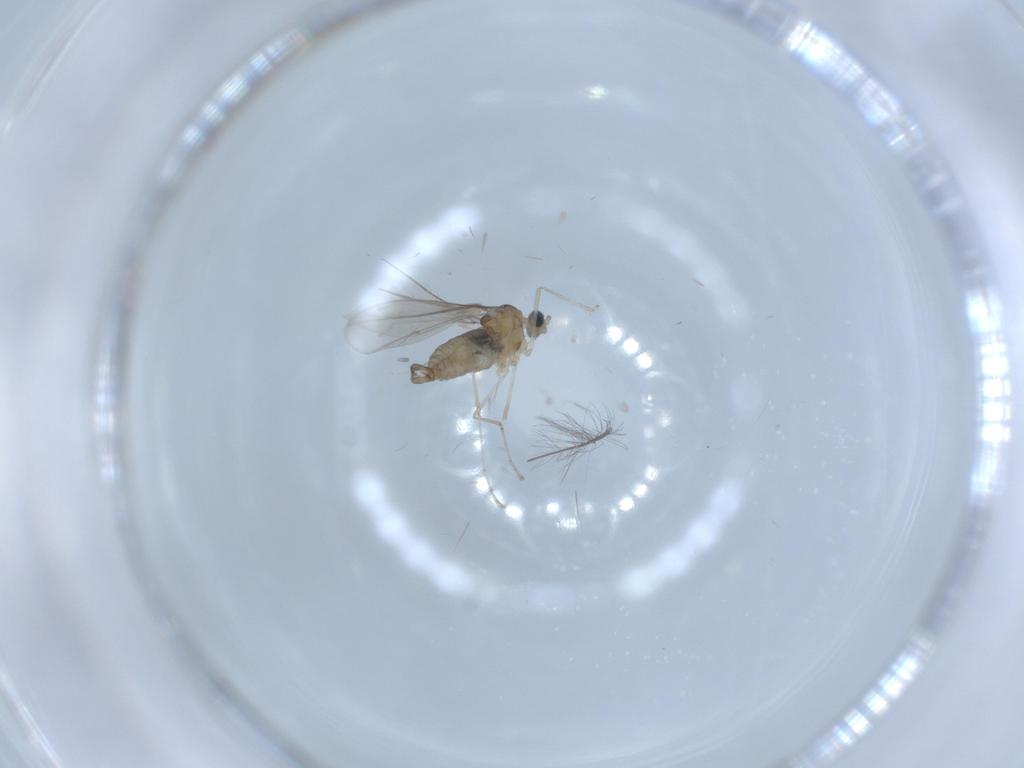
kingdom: Animalia
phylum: Arthropoda
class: Insecta
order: Diptera
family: Cecidomyiidae
